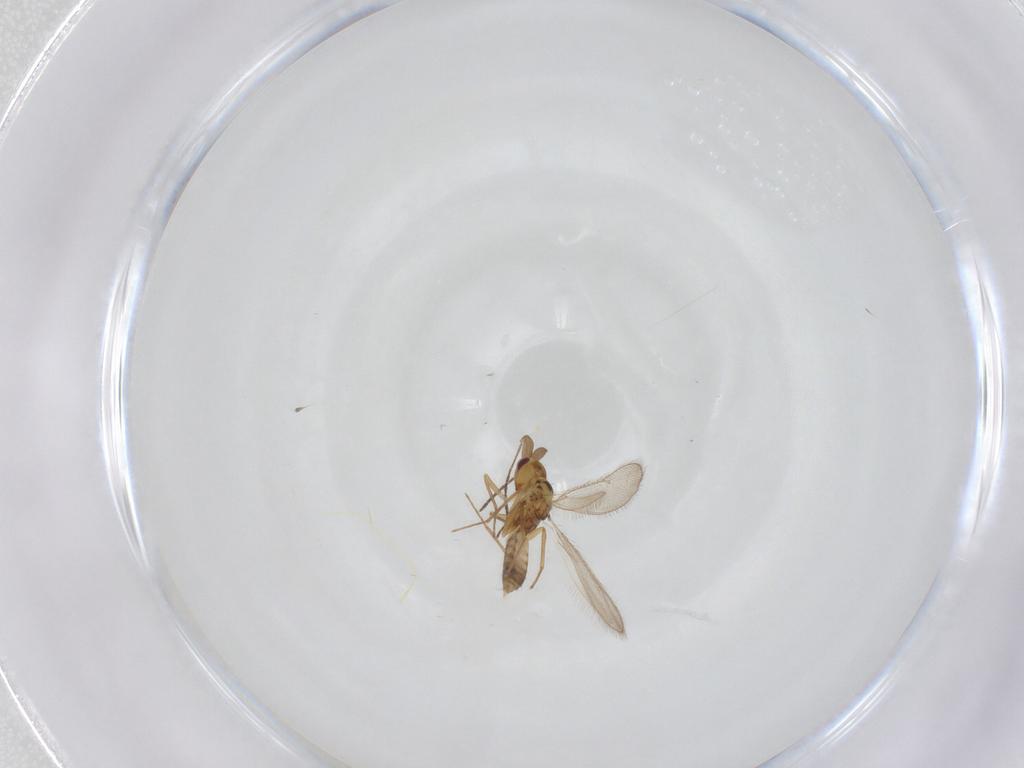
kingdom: Animalia
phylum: Arthropoda
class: Insecta
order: Hymenoptera
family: Eulophidae
